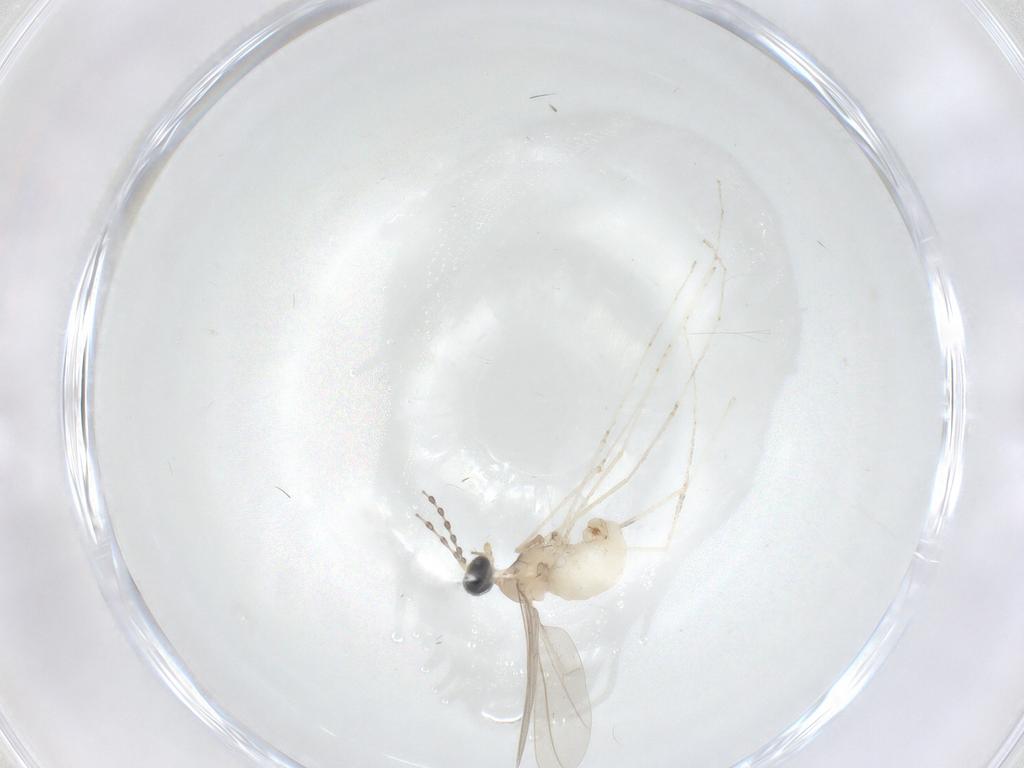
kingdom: Animalia
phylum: Arthropoda
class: Insecta
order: Diptera
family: Cecidomyiidae
